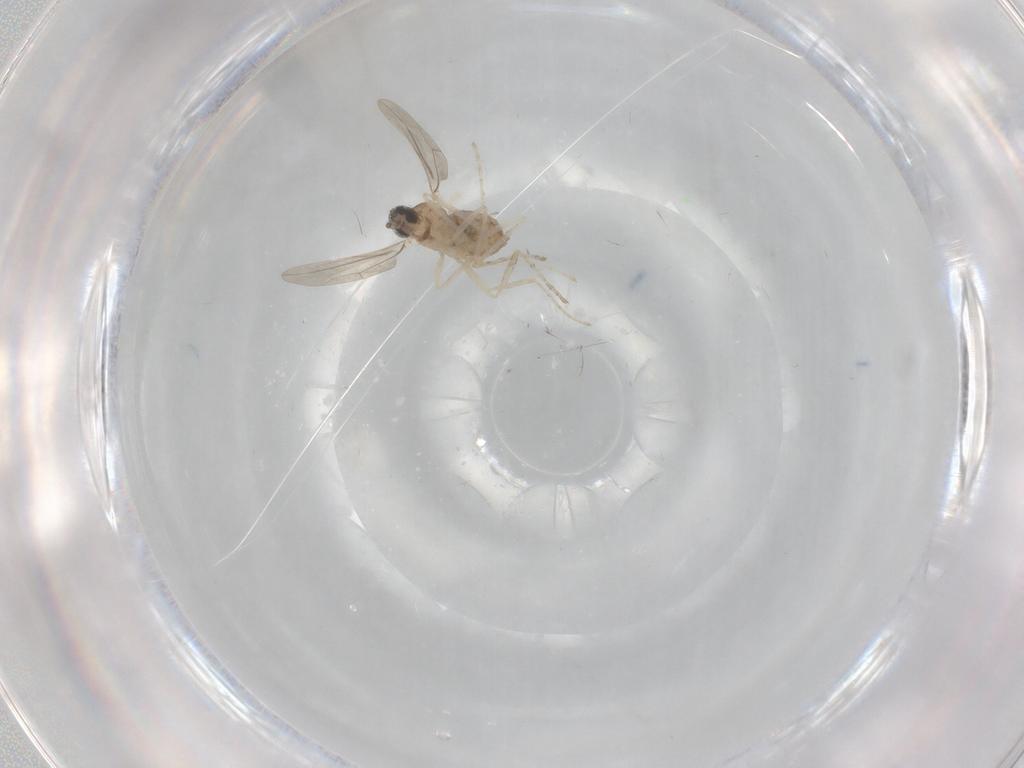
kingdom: Animalia
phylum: Arthropoda
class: Insecta
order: Diptera
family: Cecidomyiidae
